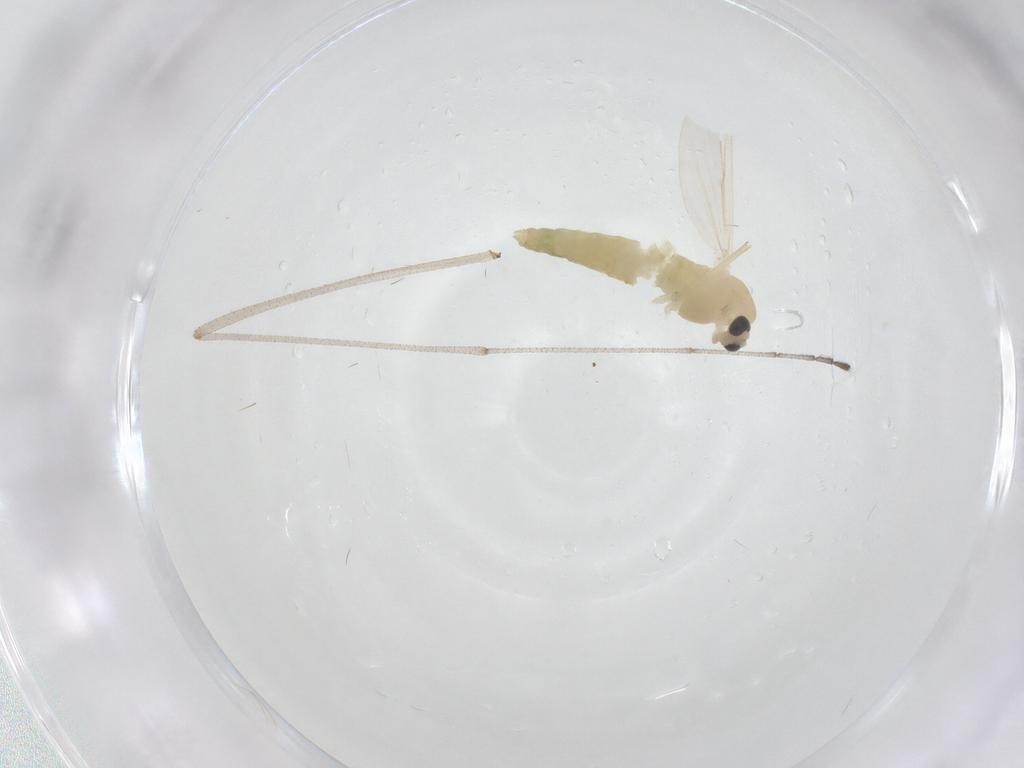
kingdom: Animalia
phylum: Arthropoda
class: Insecta
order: Diptera
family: Chironomidae
